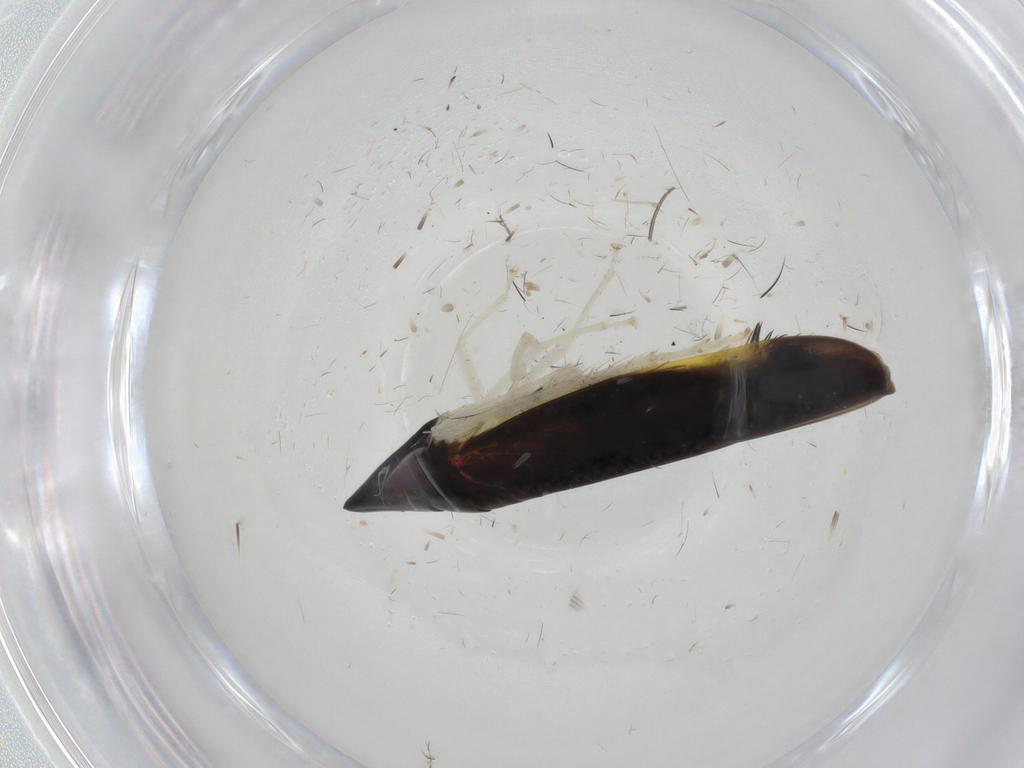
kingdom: Animalia
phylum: Arthropoda
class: Insecta
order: Hemiptera
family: Cicadellidae
